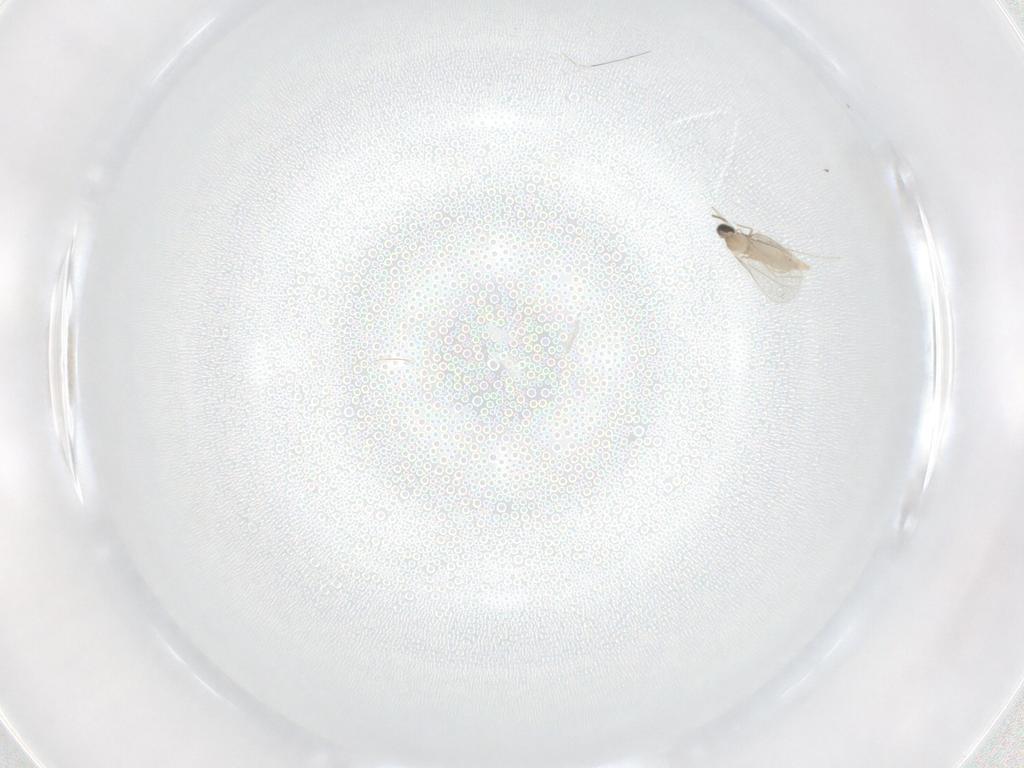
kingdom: Animalia
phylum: Arthropoda
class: Insecta
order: Diptera
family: Cecidomyiidae
